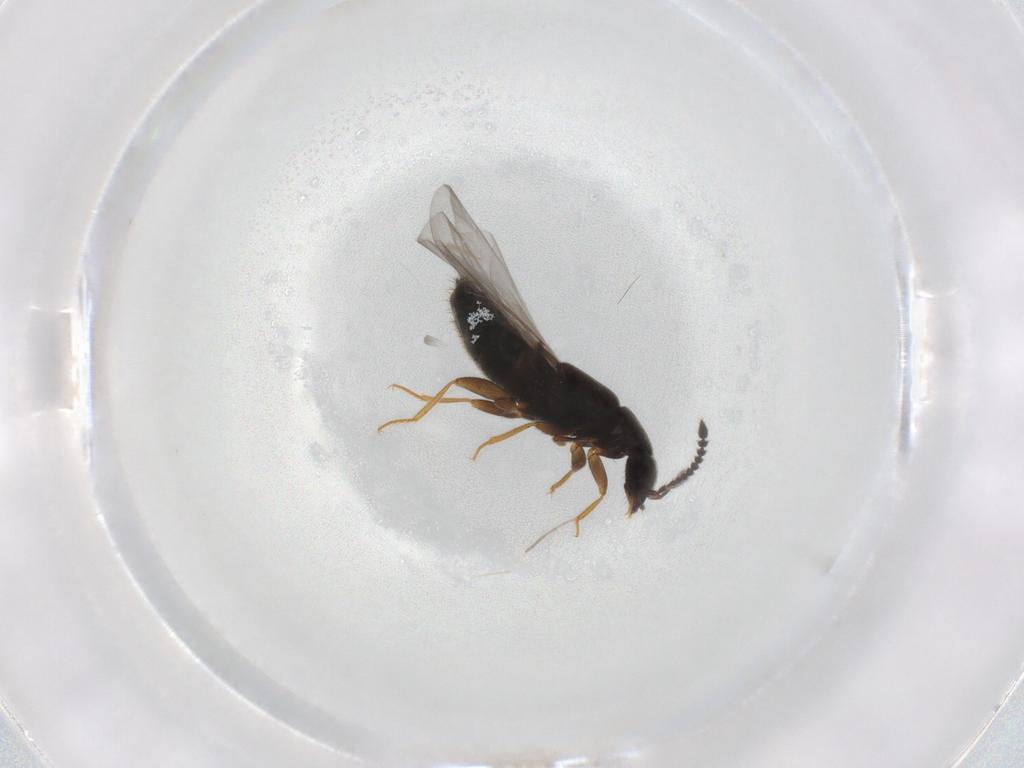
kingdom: Animalia
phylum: Arthropoda
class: Insecta
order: Coleoptera
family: Staphylinidae
